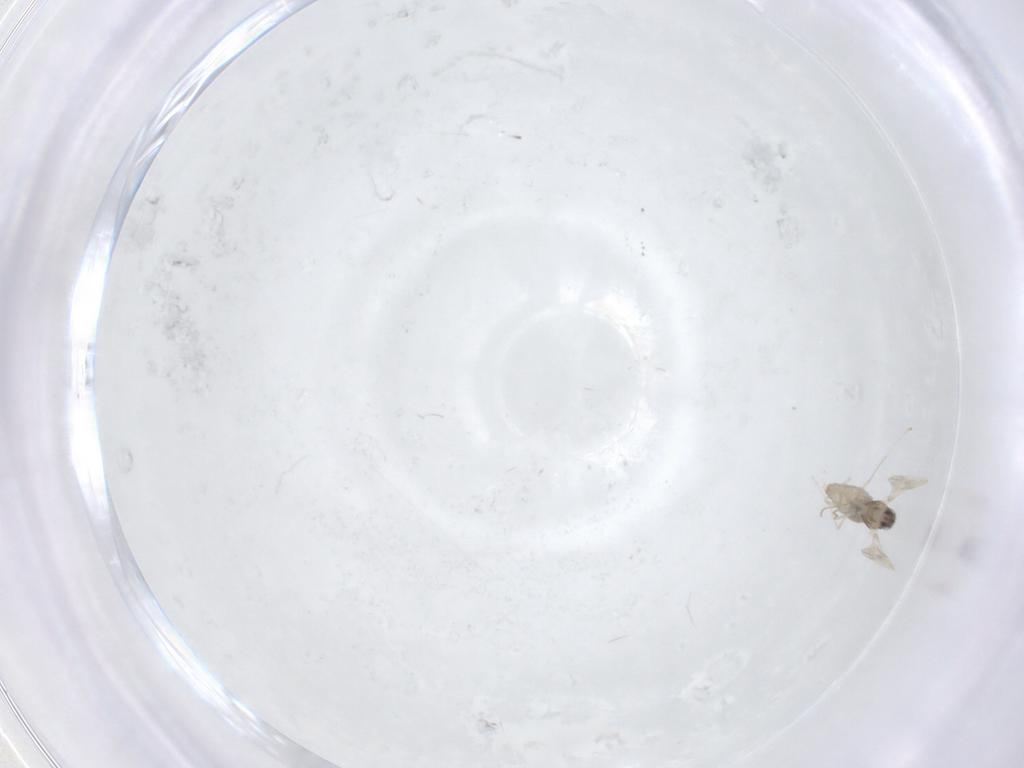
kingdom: Animalia
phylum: Arthropoda
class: Insecta
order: Diptera
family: Cecidomyiidae
